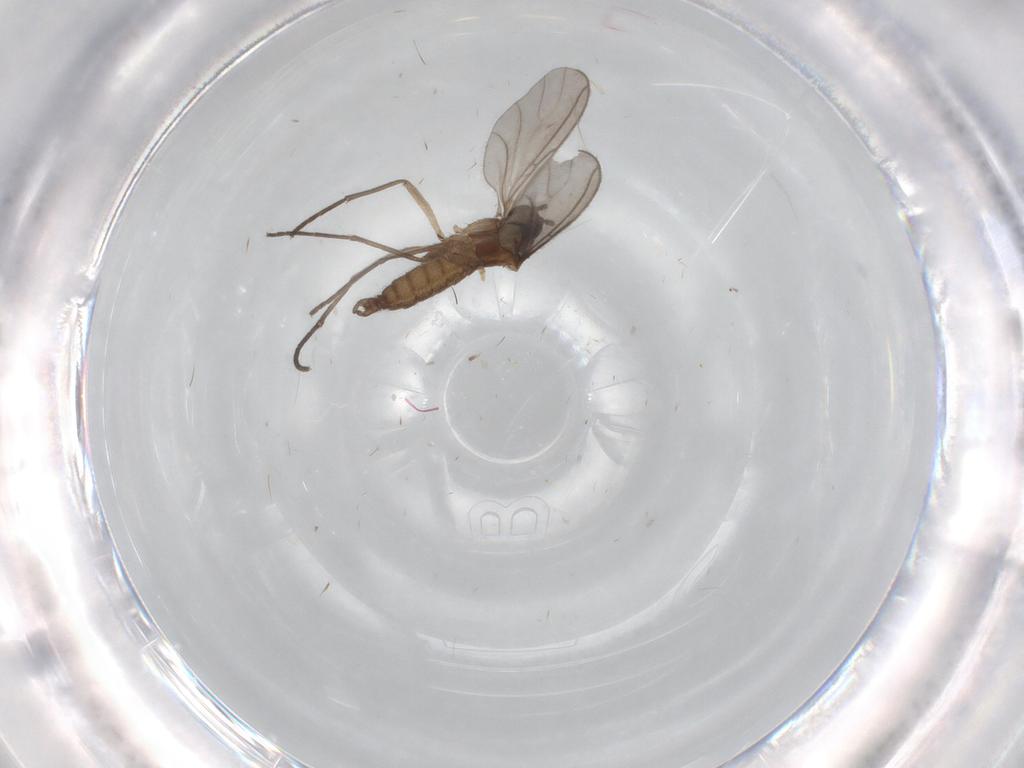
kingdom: Animalia
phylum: Arthropoda
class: Insecta
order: Diptera
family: Sciaridae
